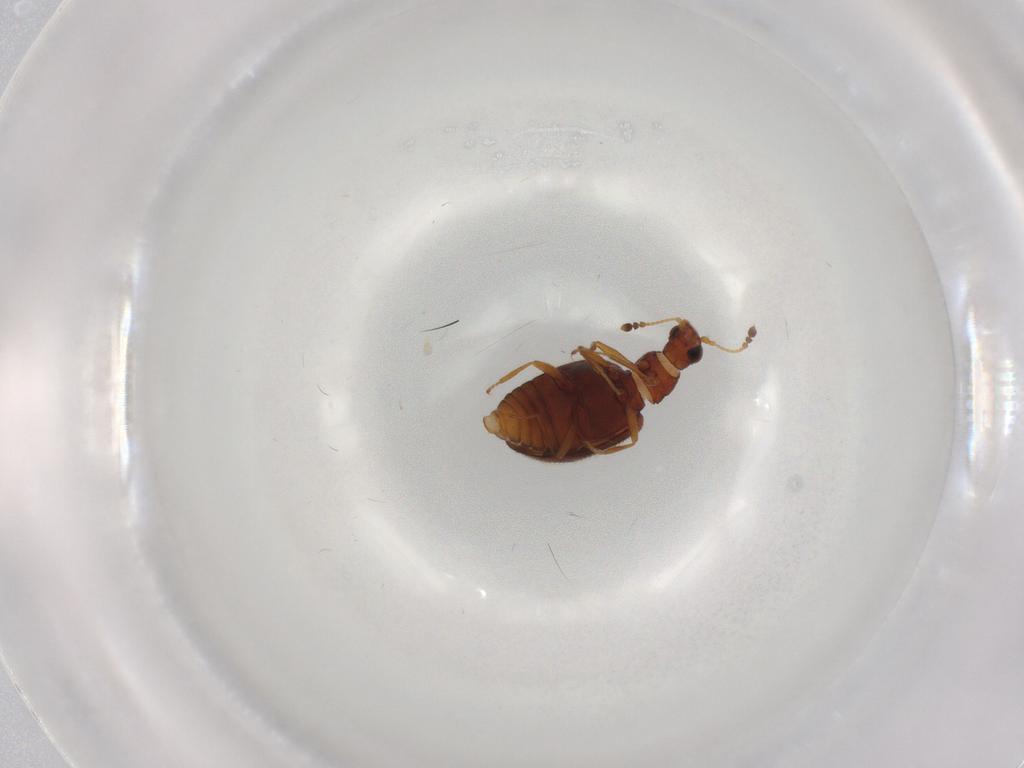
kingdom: Animalia
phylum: Arthropoda
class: Insecta
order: Coleoptera
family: Latridiidae
